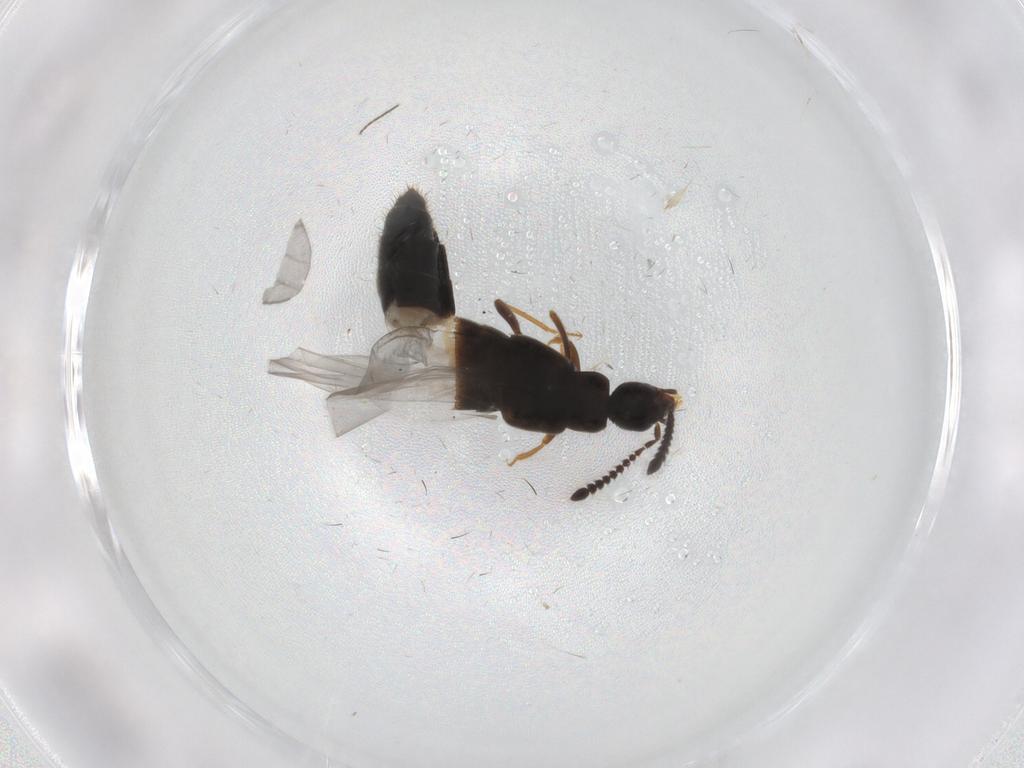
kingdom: Animalia
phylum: Arthropoda
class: Insecta
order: Coleoptera
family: Staphylinidae
